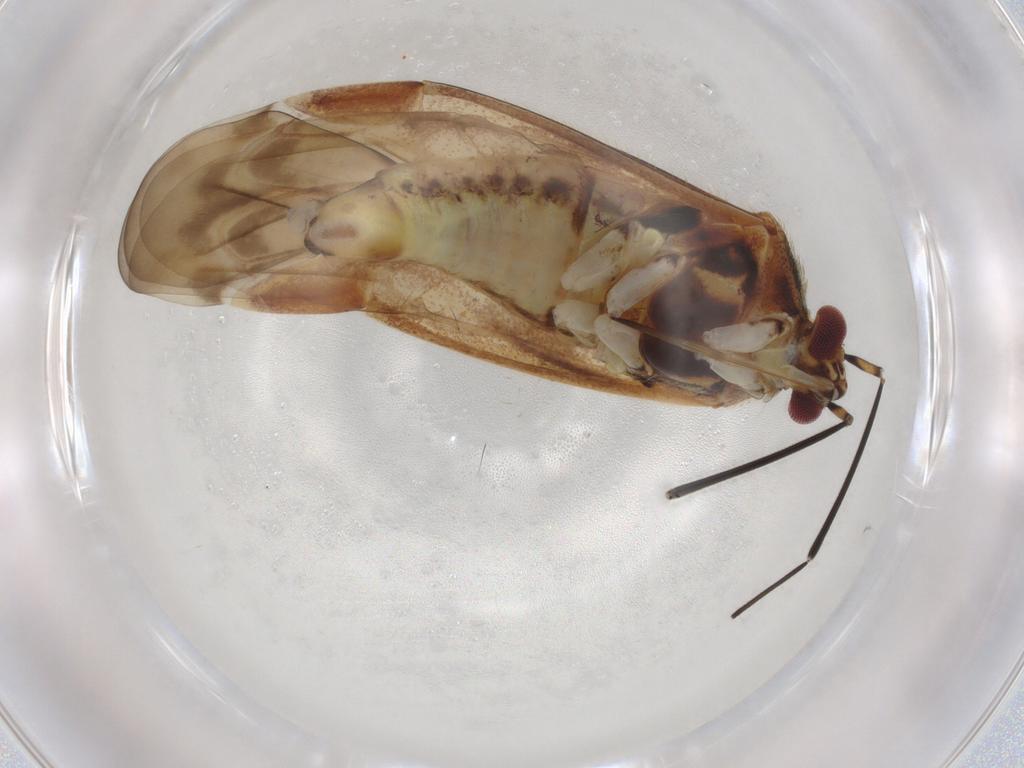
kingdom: Animalia
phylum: Arthropoda
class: Insecta
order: Hemiptera
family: Miridae
